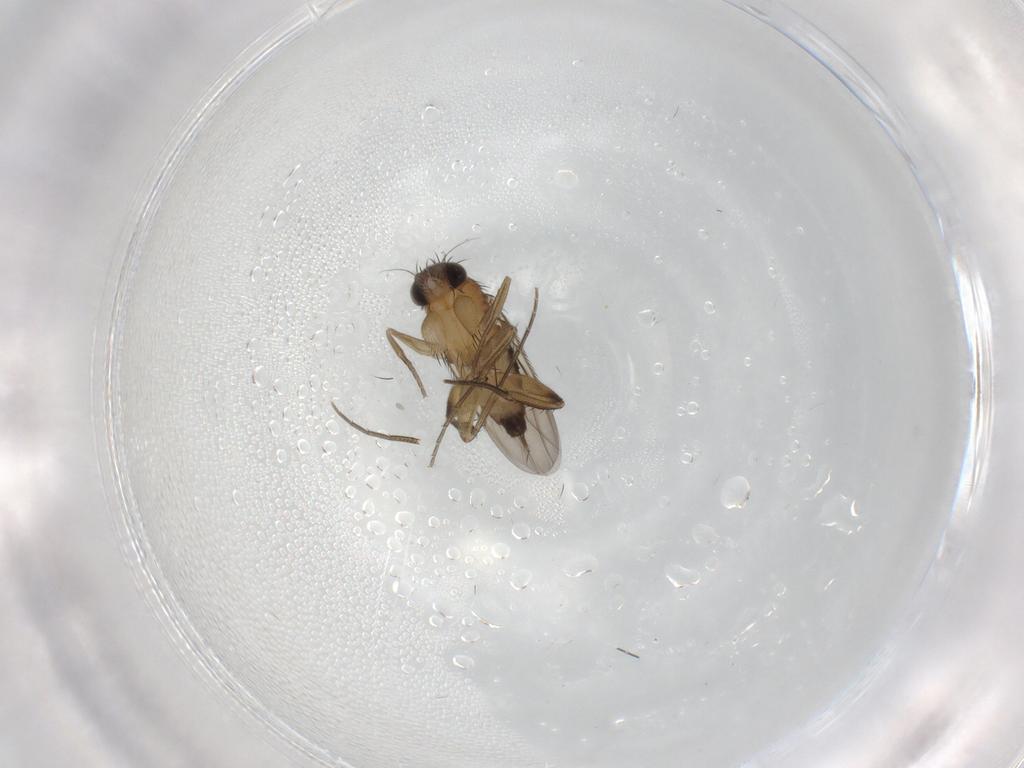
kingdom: Animalia
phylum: Arthropoda
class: Insecta
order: Diptera
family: Phoridae
